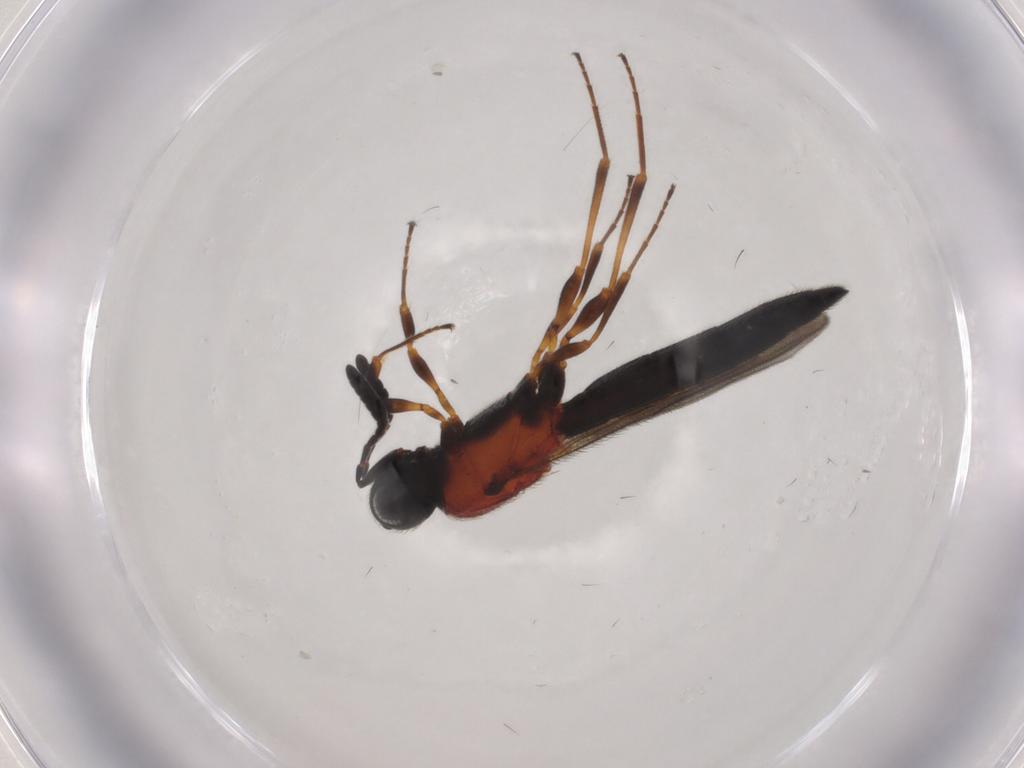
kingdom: Animalia
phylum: Arthropoda
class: Insecta
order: Hymenoptera
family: Scelionidae
